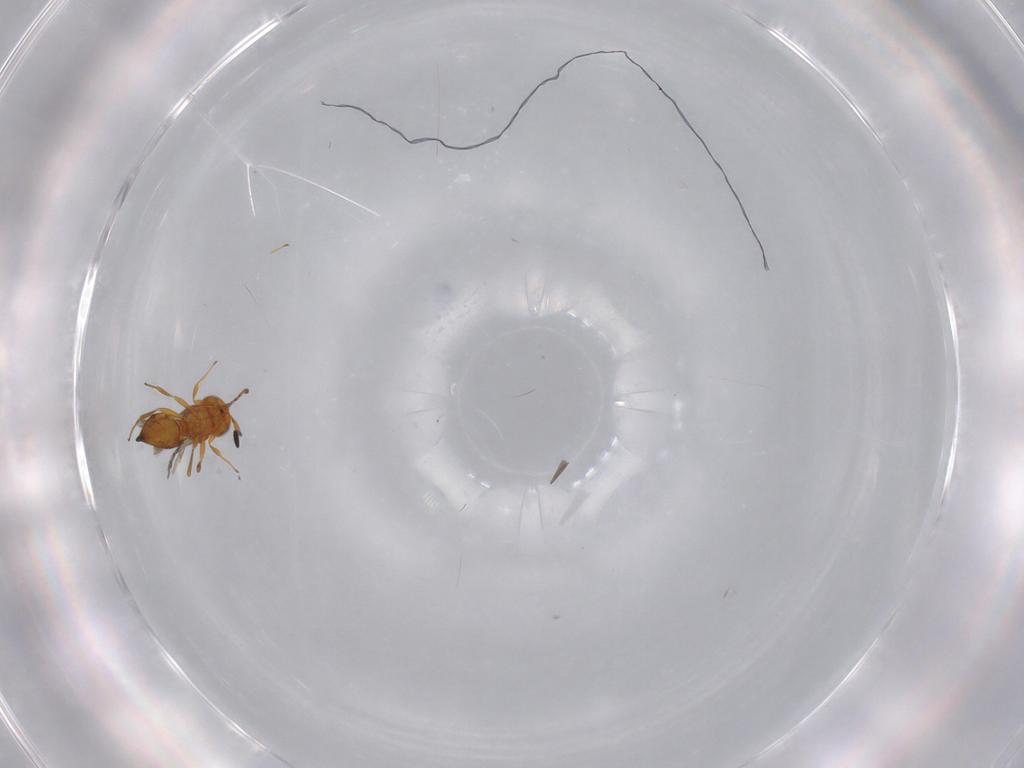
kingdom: Animalia
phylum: Arthropoda
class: Insecta
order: Hymenoptera
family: Scelionidae
